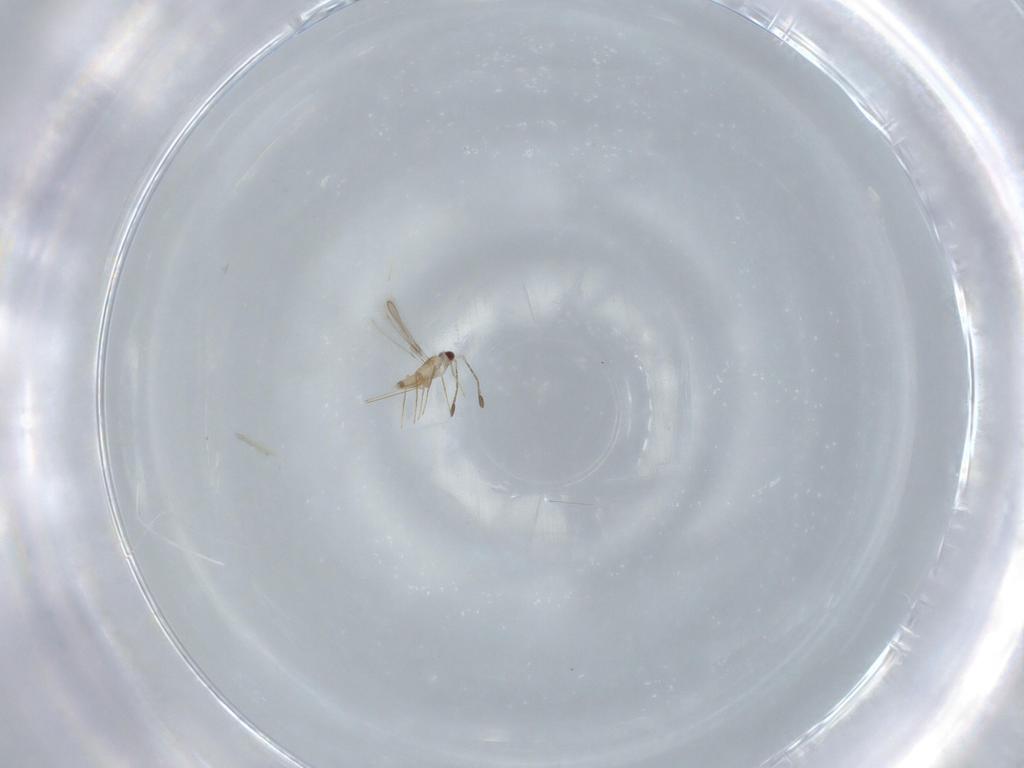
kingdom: Animalia
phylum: Arthropoda
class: Insecta
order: Hymenoptera
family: Mymaridae
